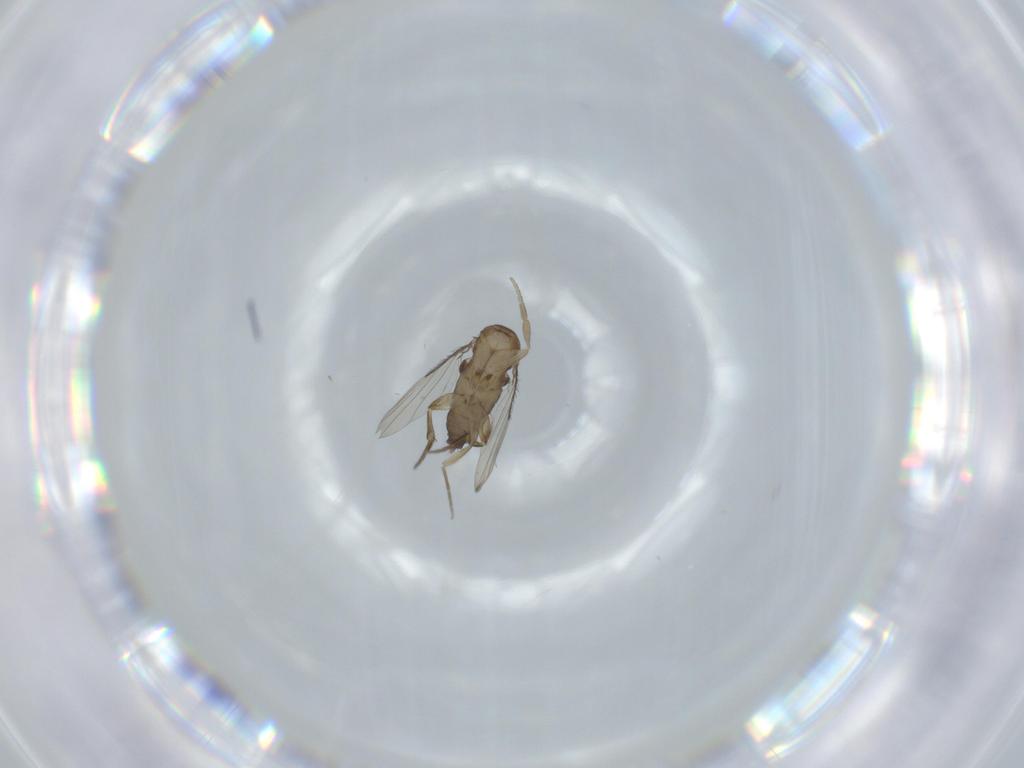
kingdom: Animalia
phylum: Arthropoda
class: Insecta
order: Diptera
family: Phoridae
